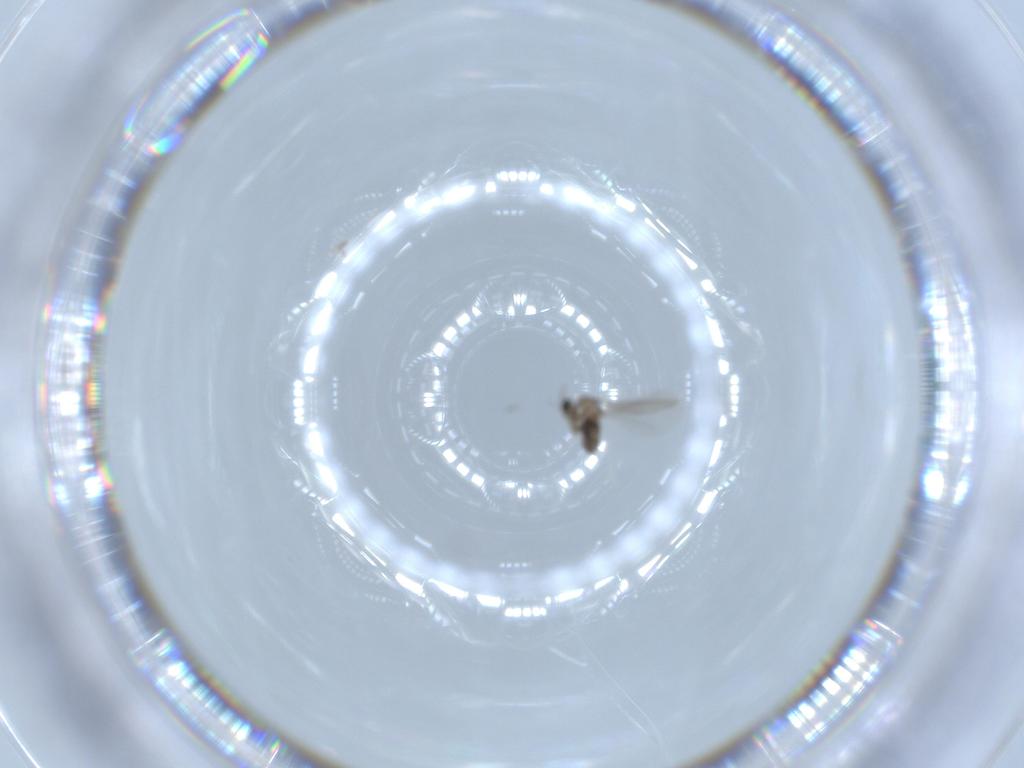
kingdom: Animalia
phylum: Arthropoda
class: Insecta
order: Diptera
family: Cecidomyiidae
